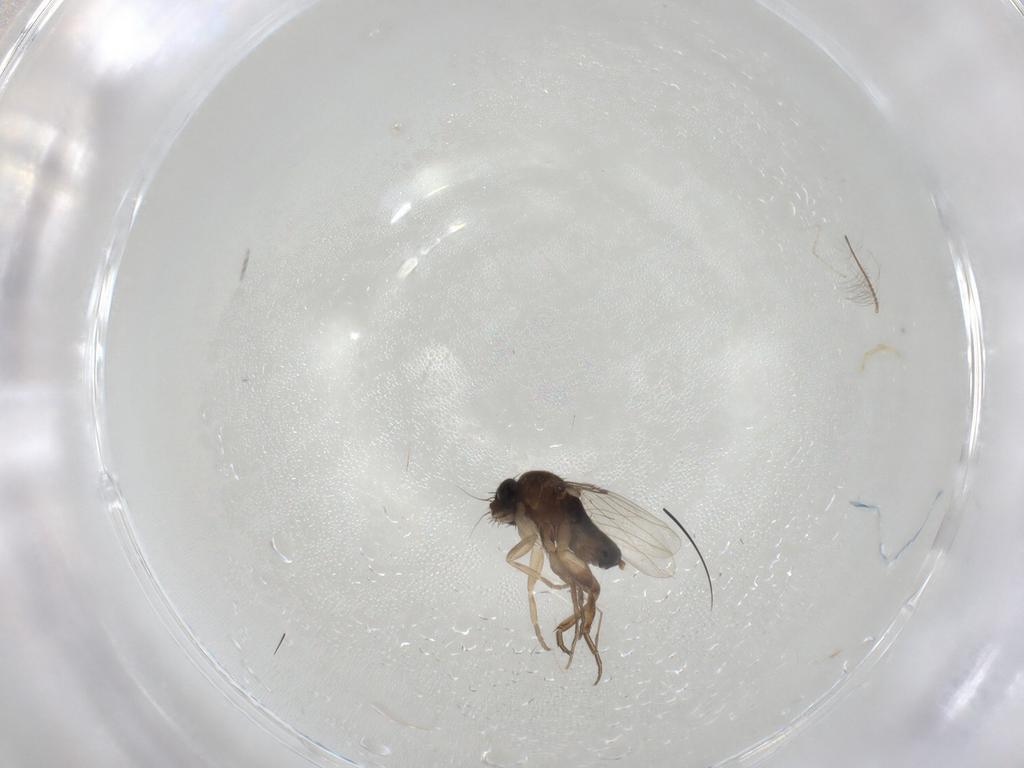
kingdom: Animalia
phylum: Arthropoda
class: Insecta
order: Diptera
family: Phoridae
